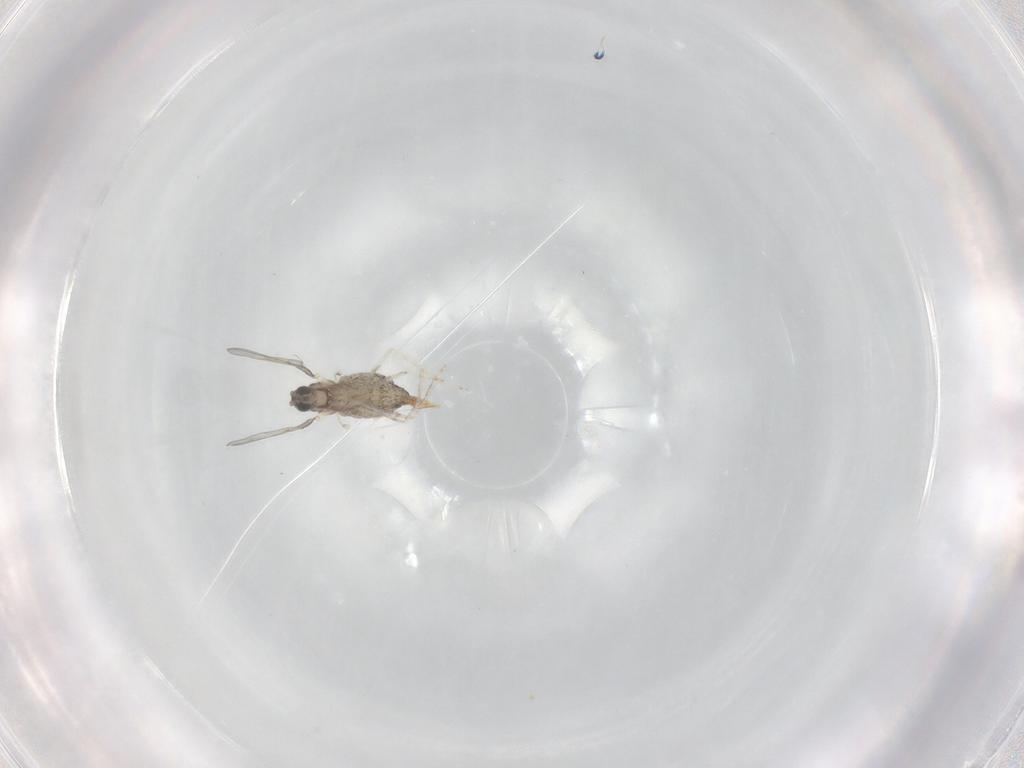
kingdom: Animalia
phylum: Arthropoda
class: Insecta
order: Diptera
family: Cecidomyiidae
